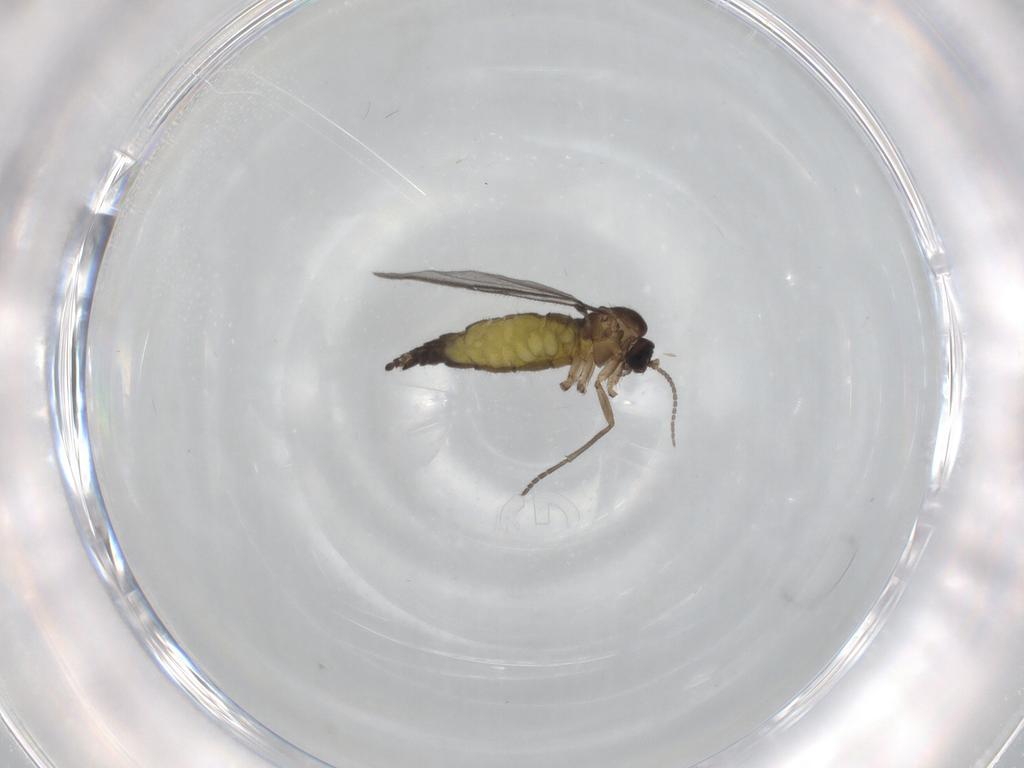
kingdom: Animalia
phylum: Arthropoda
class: Insecta
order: Diptera
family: Sciaridae
